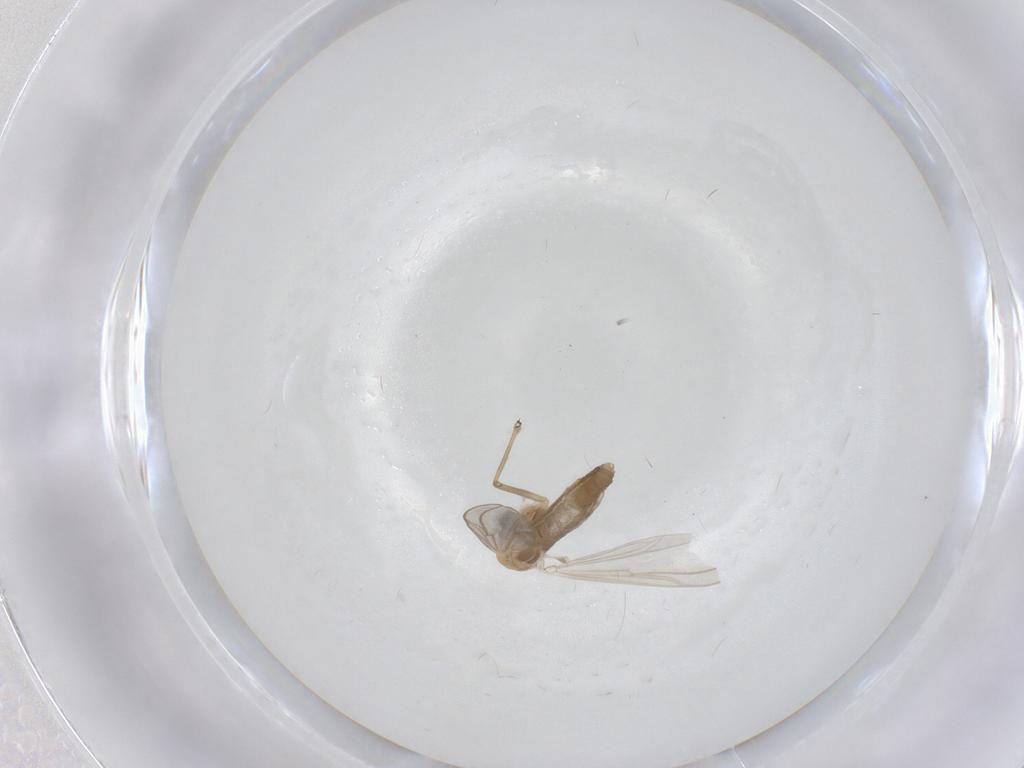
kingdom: Animalia
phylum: Arthropoda
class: Insecta
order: Diptera
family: Chironomidae
